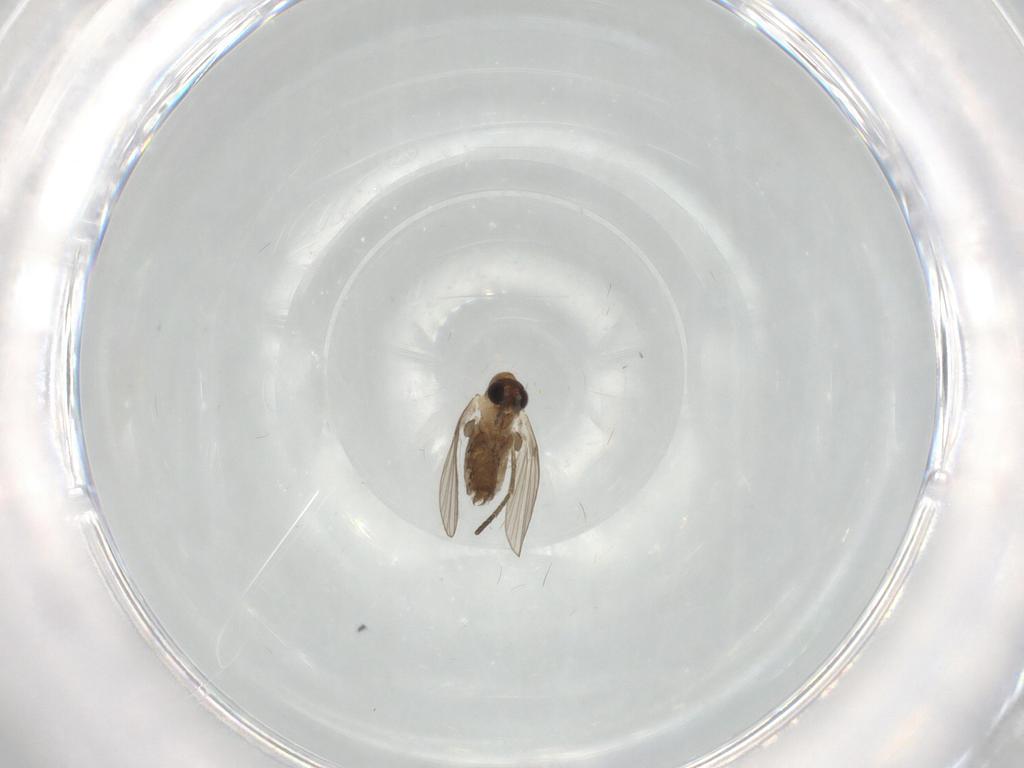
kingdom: Animalia
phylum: Arthropoda
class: Insecta
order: Diptera
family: Psychodidae
